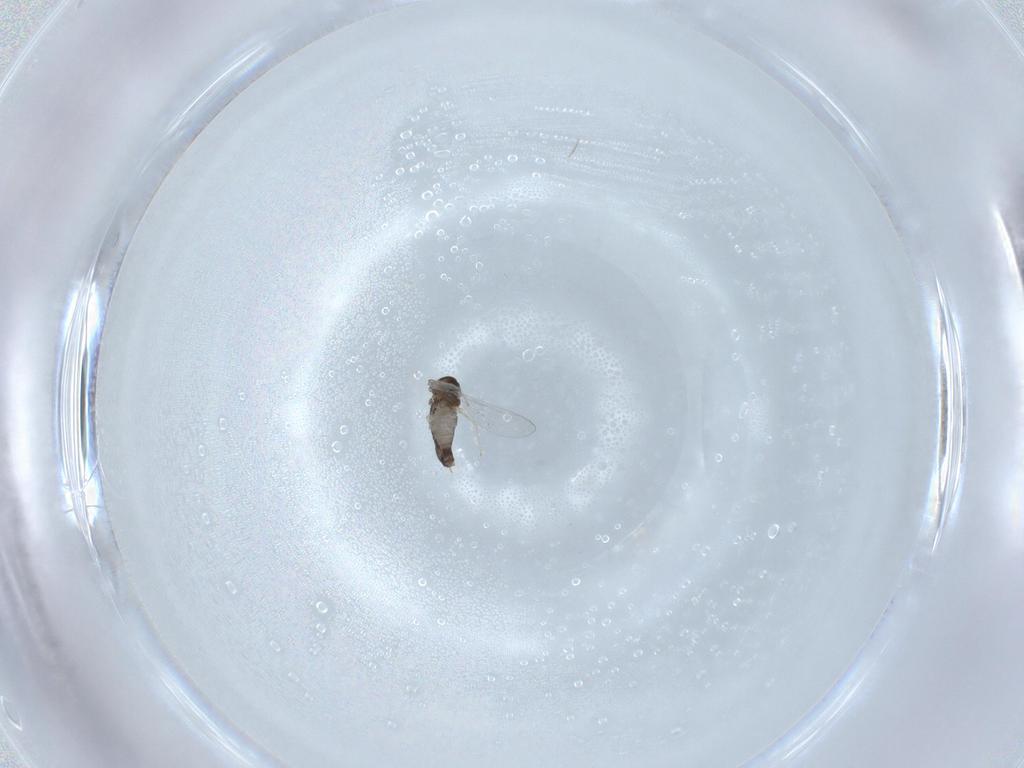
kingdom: Animalia
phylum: Arthropoda
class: Insecta
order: Diptera
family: Chironomidae
